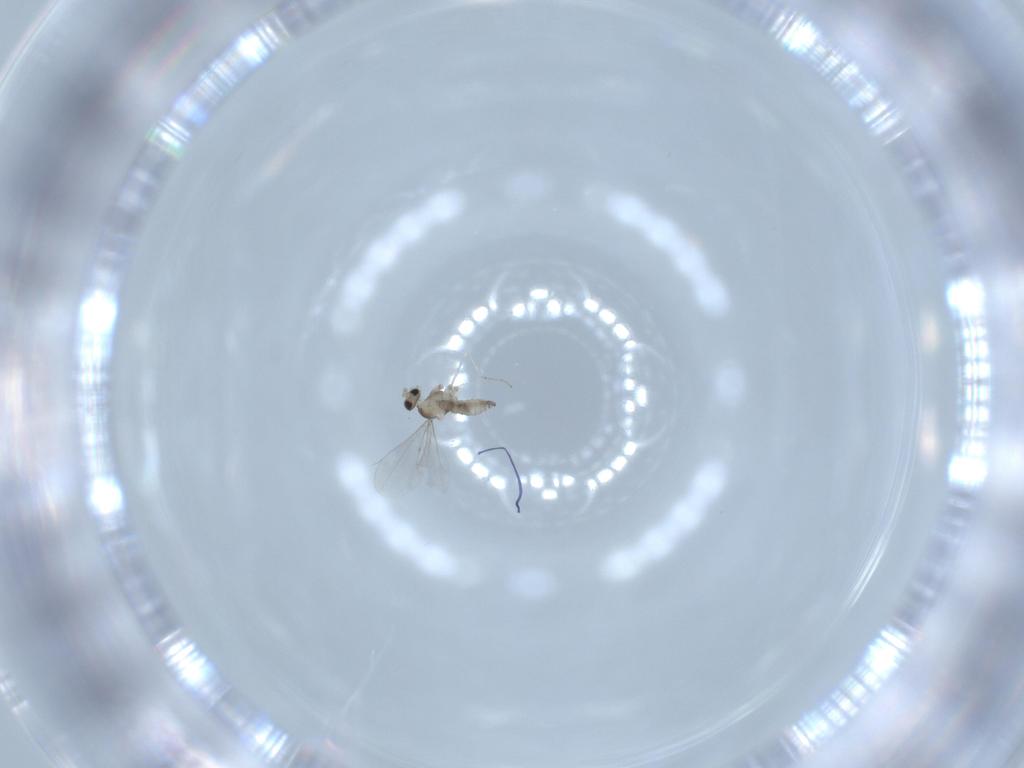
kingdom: Animalia
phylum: Arthropoda
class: Insecta
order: Diptera
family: Cecidomyiidae
